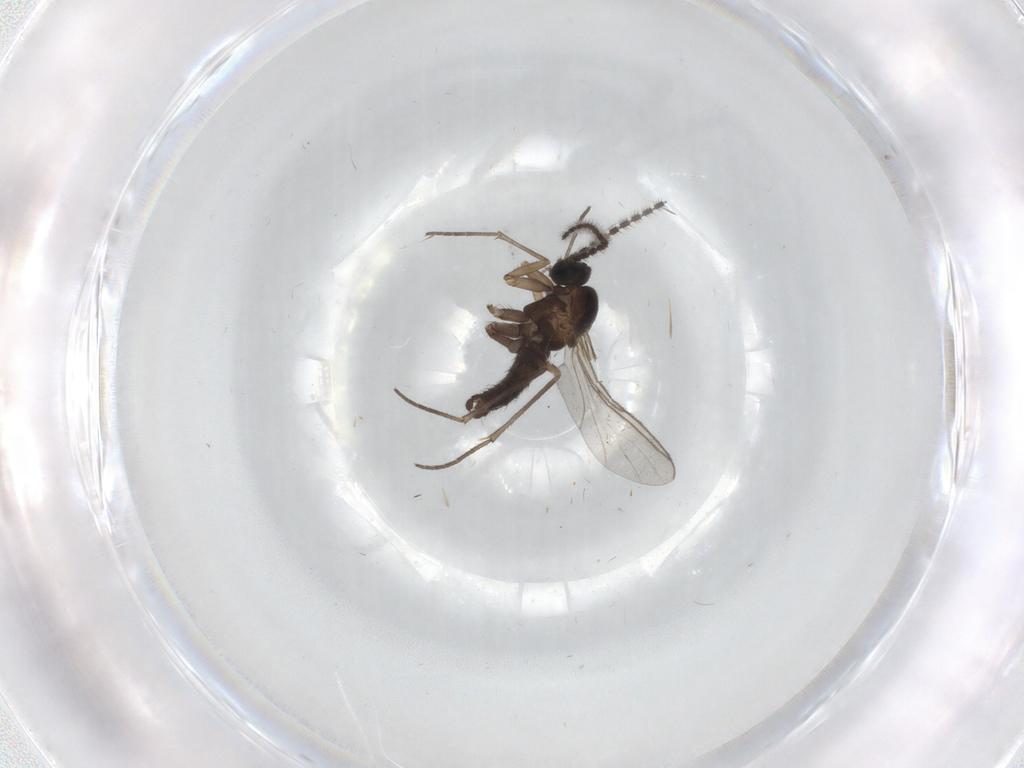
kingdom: Animalia
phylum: Arthropoda
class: Insecta
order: Diptera
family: Sciaridae
